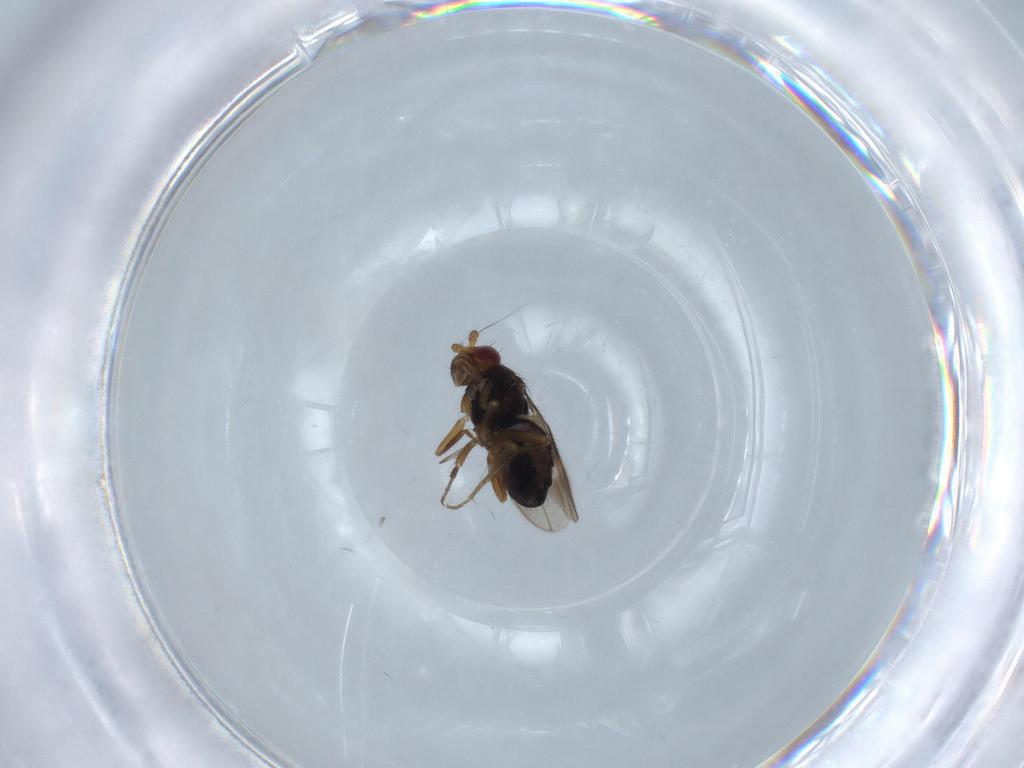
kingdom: Animalia
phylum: Arthropoda
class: Insecta
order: Diptera
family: Sphaeroceridae
